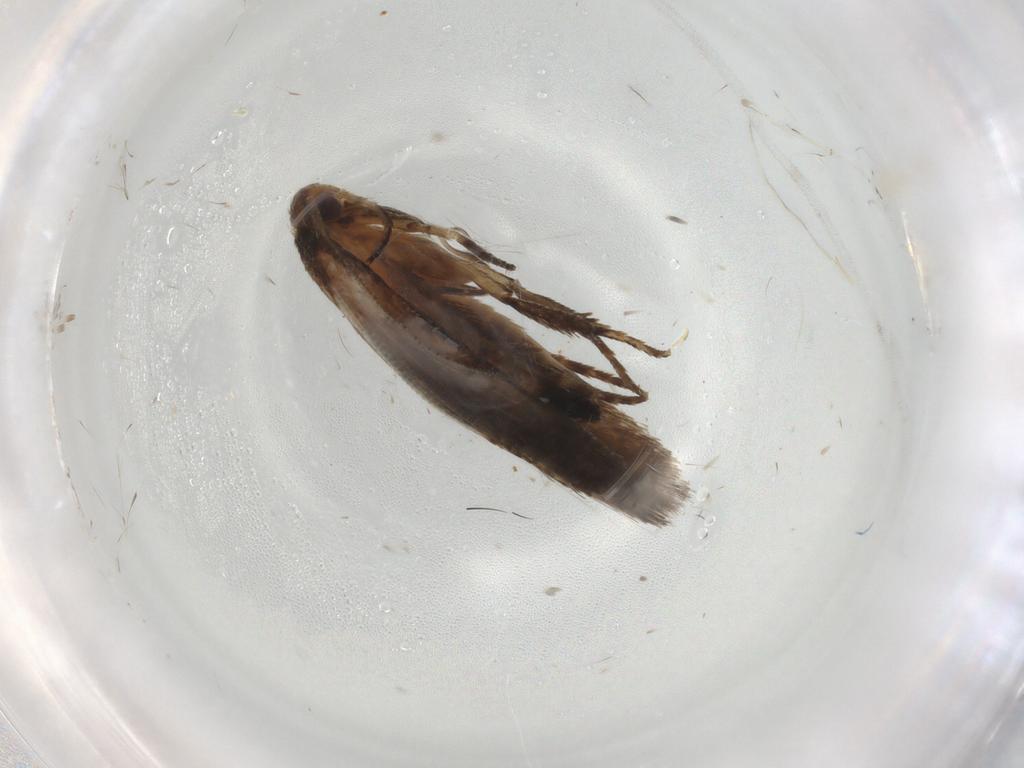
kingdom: Animalia
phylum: Arthropoda
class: Insecta
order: Lepidoptera
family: Cosmopterigidae
